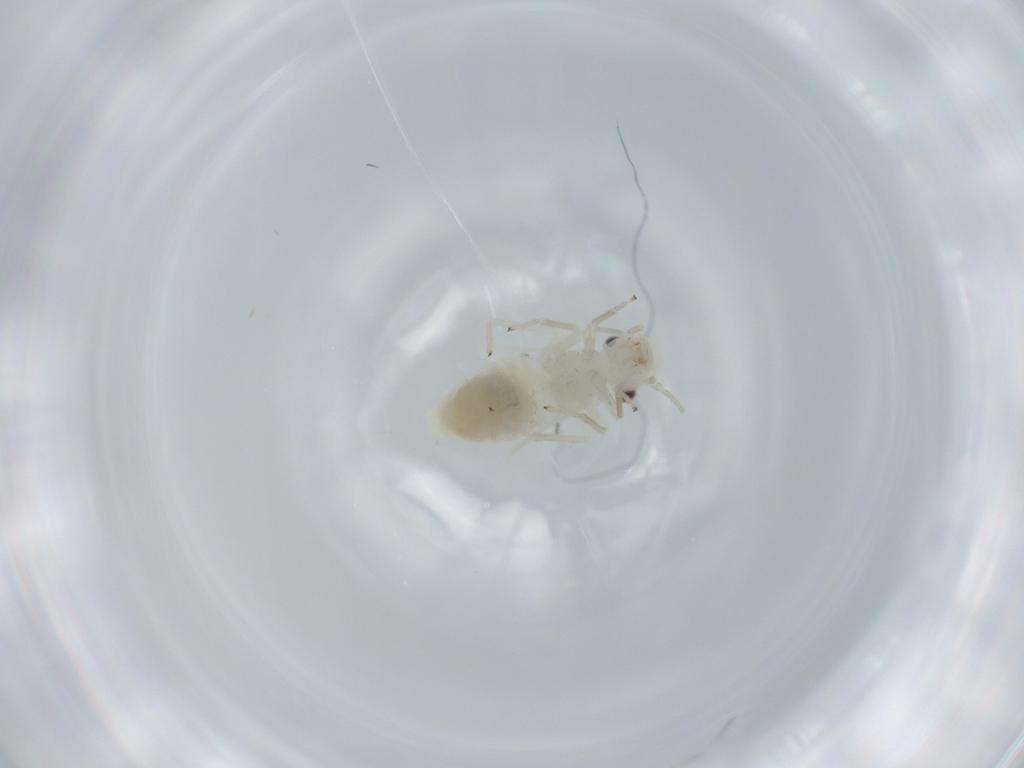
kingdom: Animalia
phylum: Arthropoda
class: Insecta
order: Psocodea
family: Caeciliusidae
